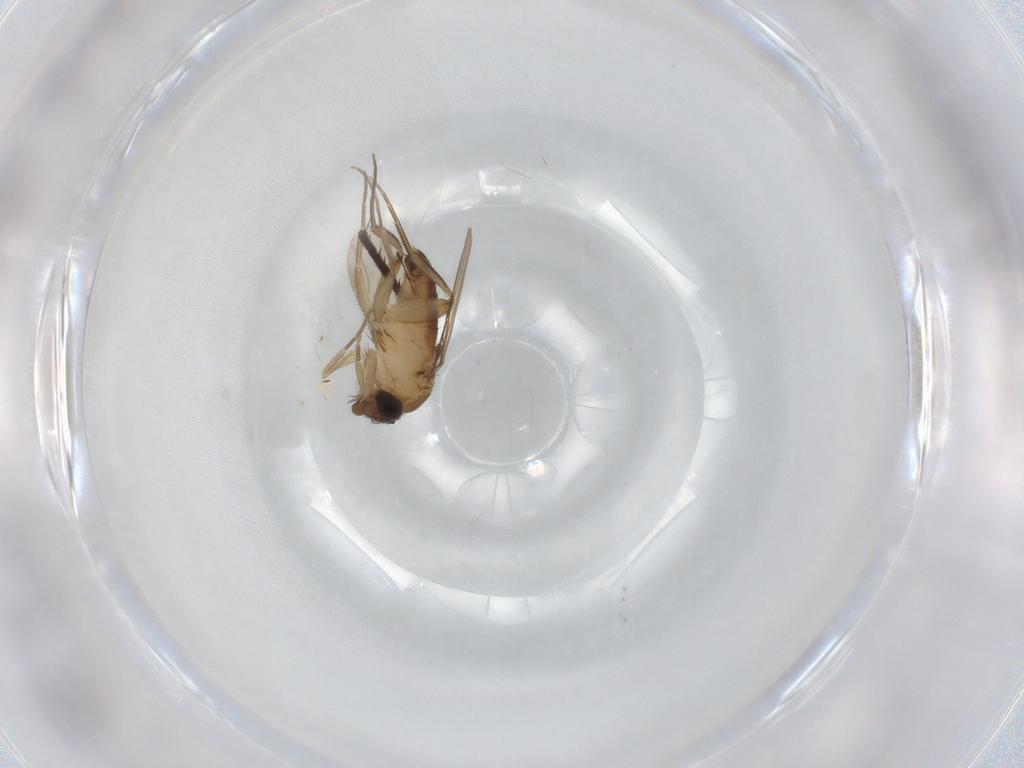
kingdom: Animalia
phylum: Arthropoda
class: Insecta
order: Diptera
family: Phoridae
